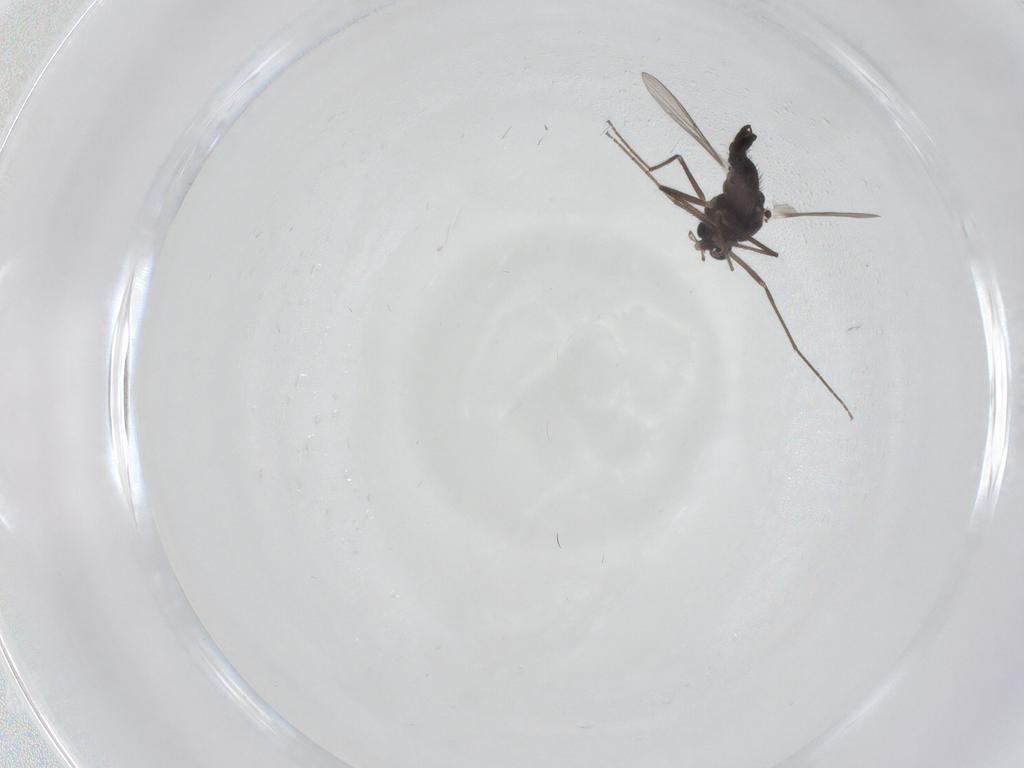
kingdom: Animalia
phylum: Arthropoda
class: Insecta
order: Diptera
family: Chironomidae
